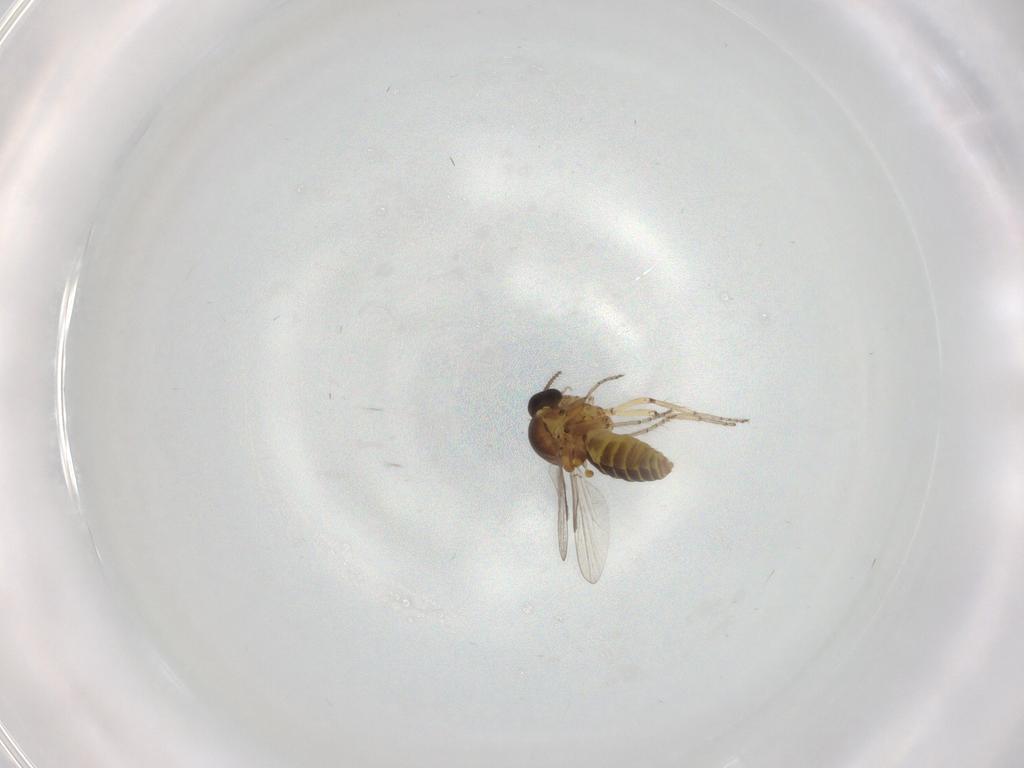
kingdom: Animalia
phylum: Arthropoda
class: Insecta
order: Diptera
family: Ceratopogonidae
